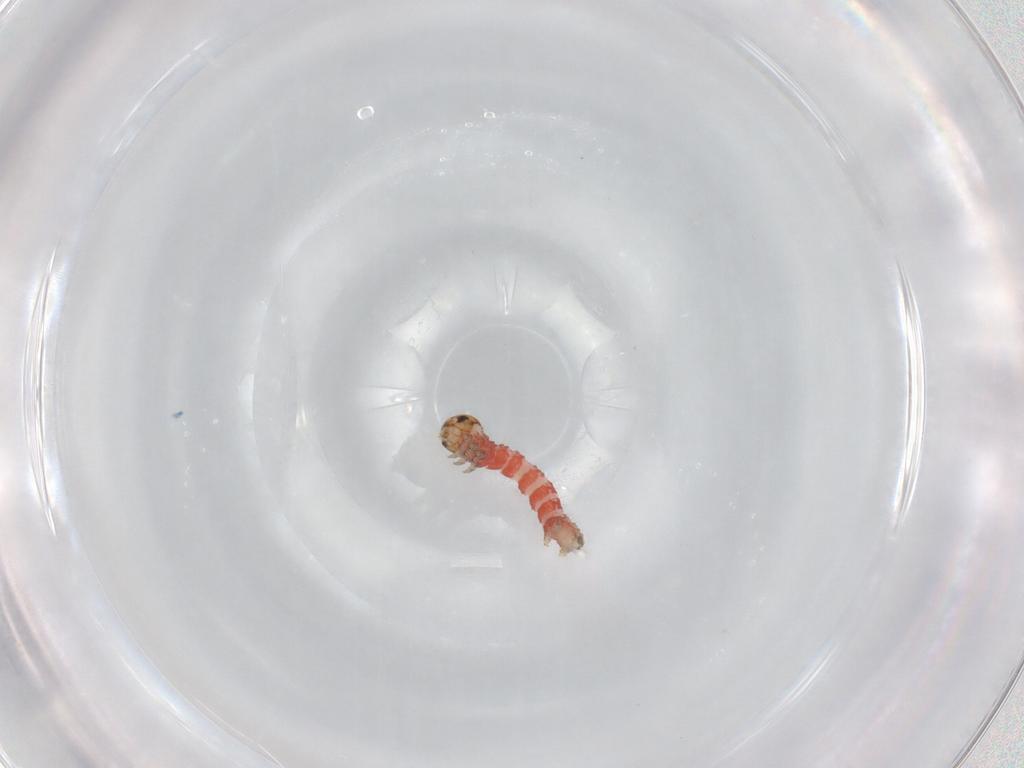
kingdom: Animalia
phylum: Arthropoda
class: Insecta
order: Lepidoptera
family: Geometridae
